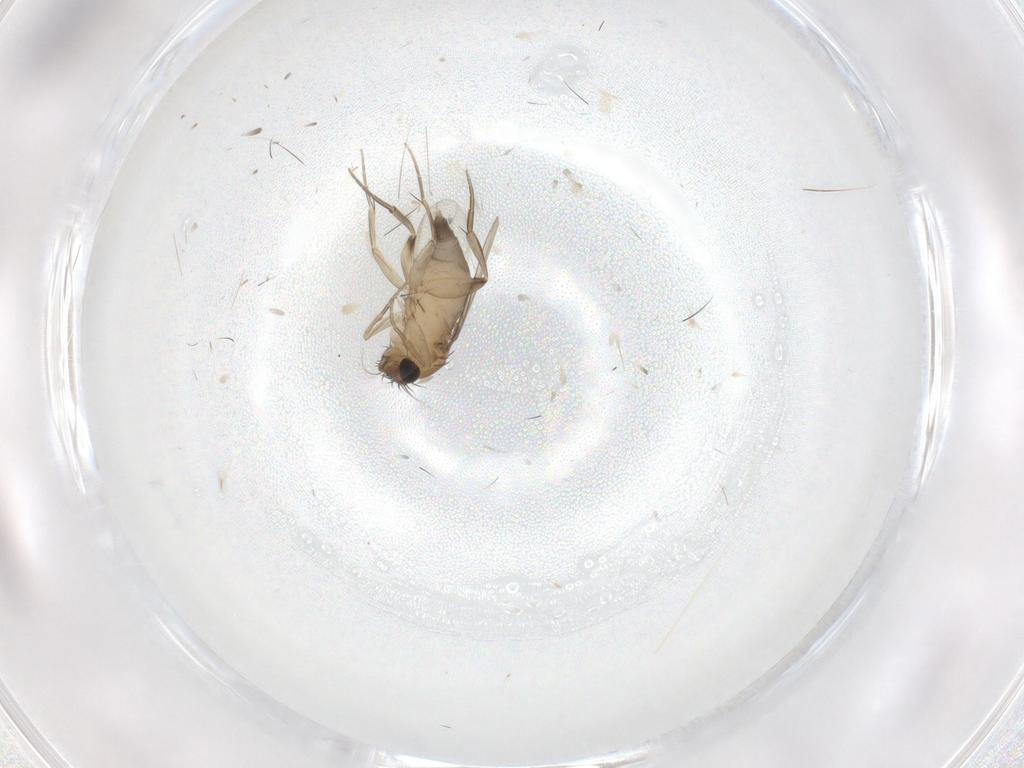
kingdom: Animalia
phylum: Arthropoda
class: Insecta
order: Diptera
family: Phoridae
